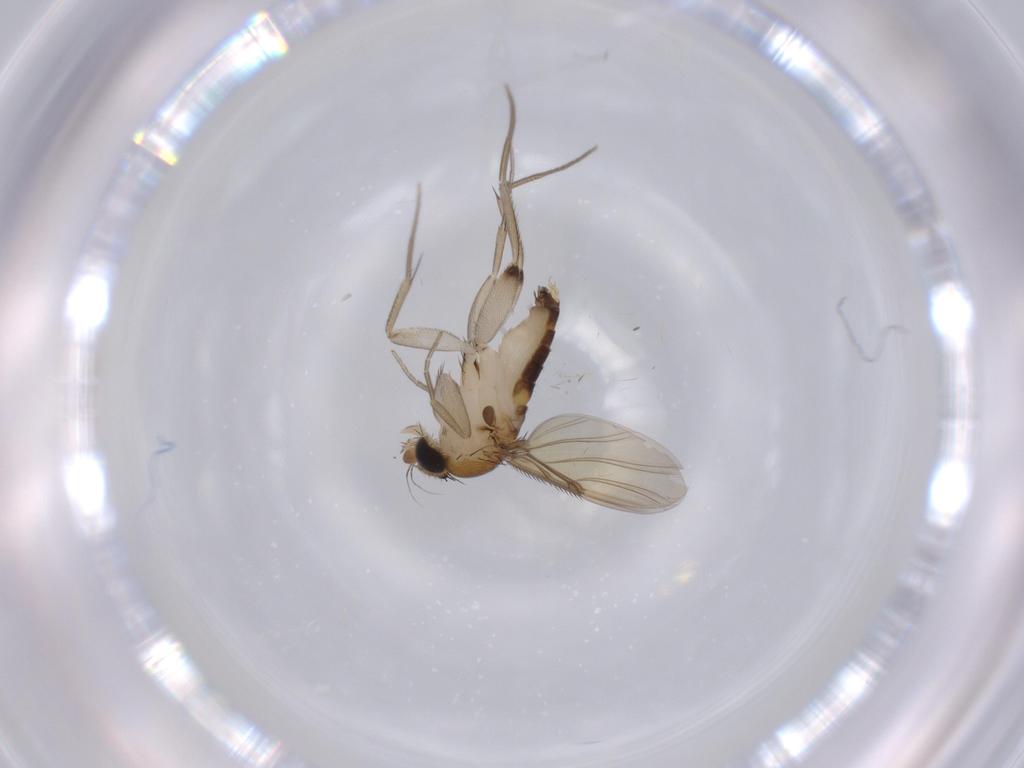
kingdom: Animalia
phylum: Arthropoda
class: Insecta
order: Diptera
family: Phoridae
